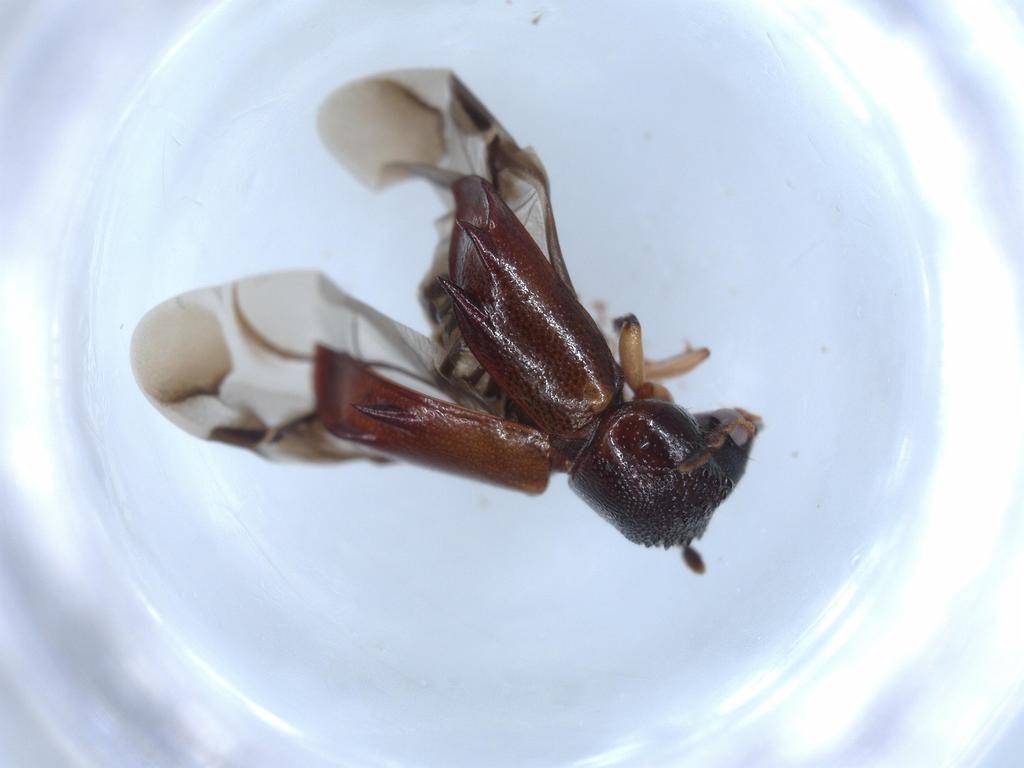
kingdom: Animalia
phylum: Arthropoda
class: Insecta
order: Coleoptera
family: Bostrichidae
